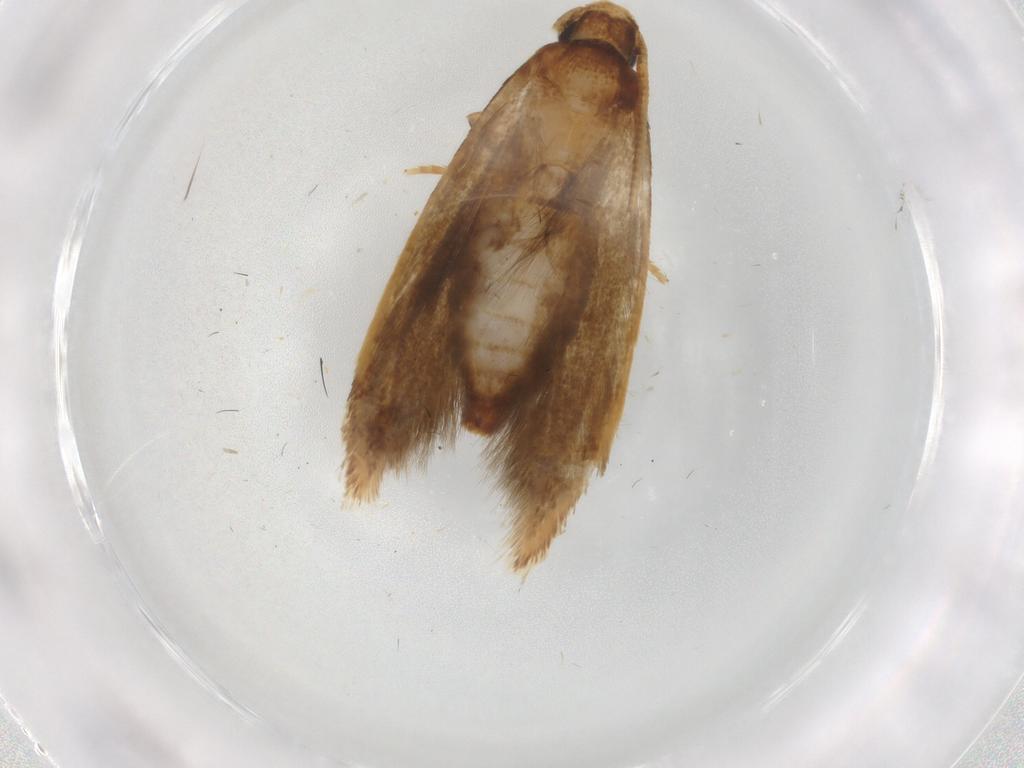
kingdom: Animalia
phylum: Arthropoda
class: Insecta
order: Lepidoptera
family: Tineidae
